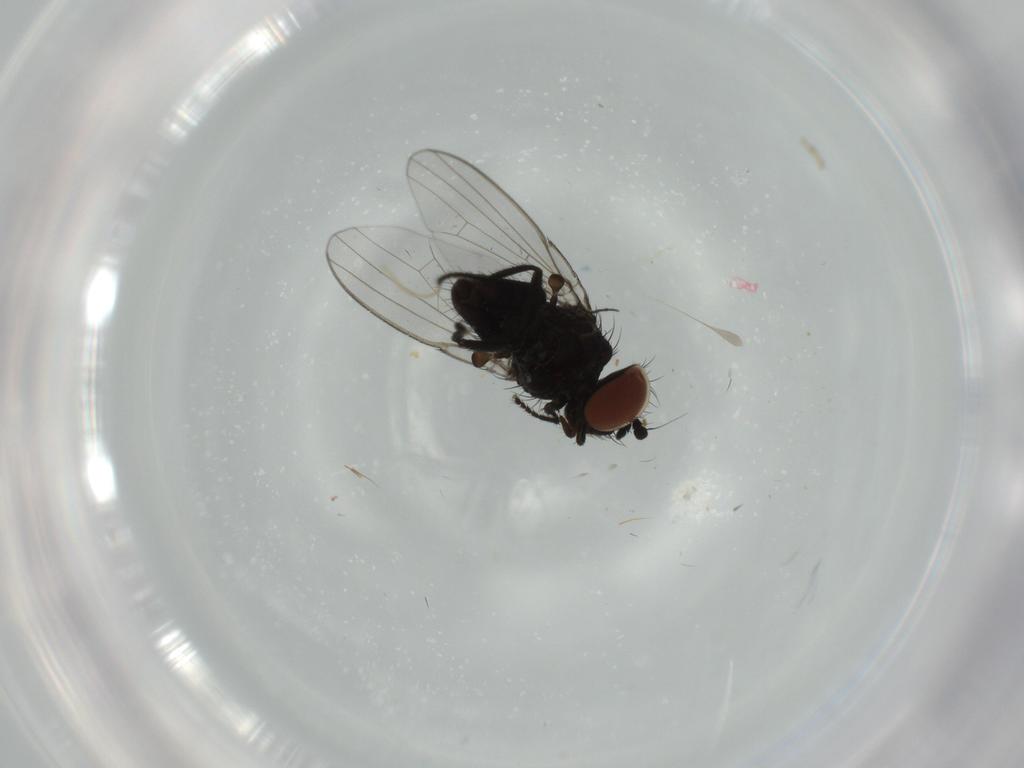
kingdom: Animalia
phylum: Arthropoda
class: Insecta
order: Diptera
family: Milichiidae
